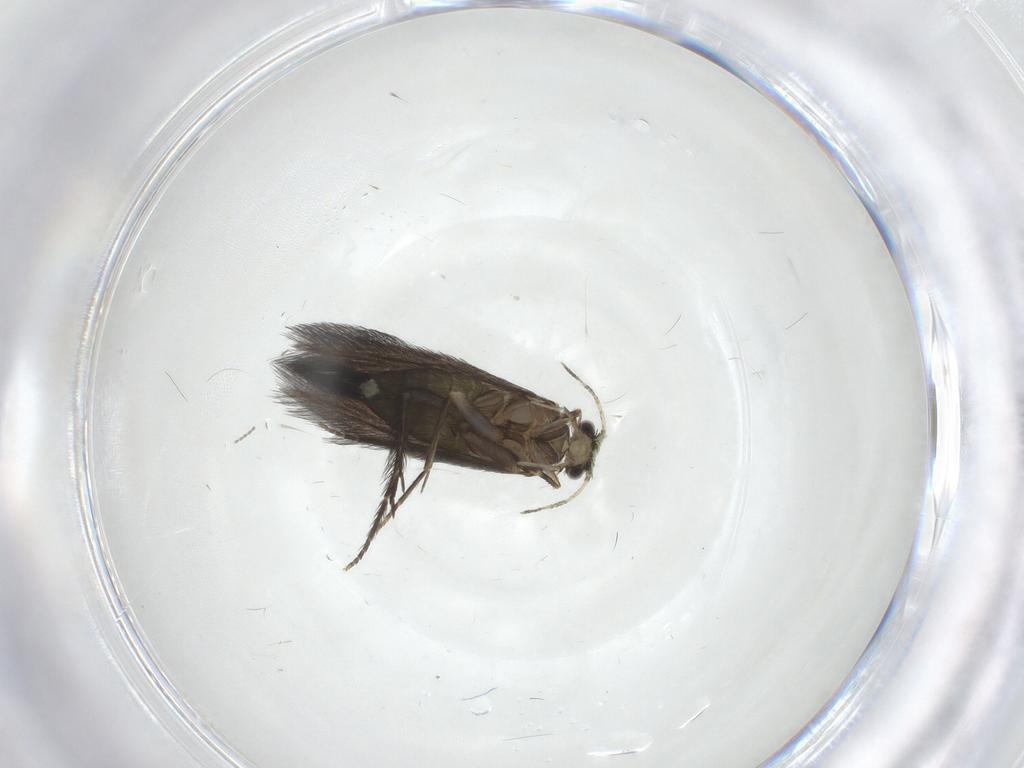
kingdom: Animalia
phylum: Arthropoda
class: Insecta
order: Trichoptera
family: Hydroptilidae
